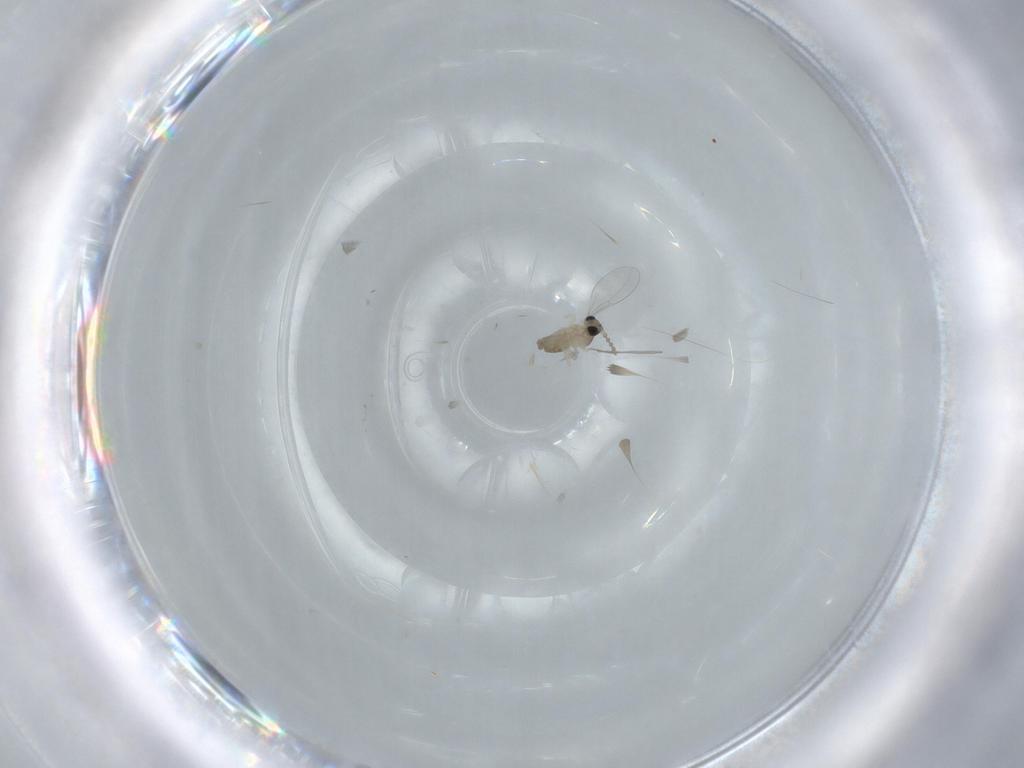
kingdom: Animalia
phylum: Arthropoda
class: Insecta
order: Diptera
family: Cecidomyiidae
